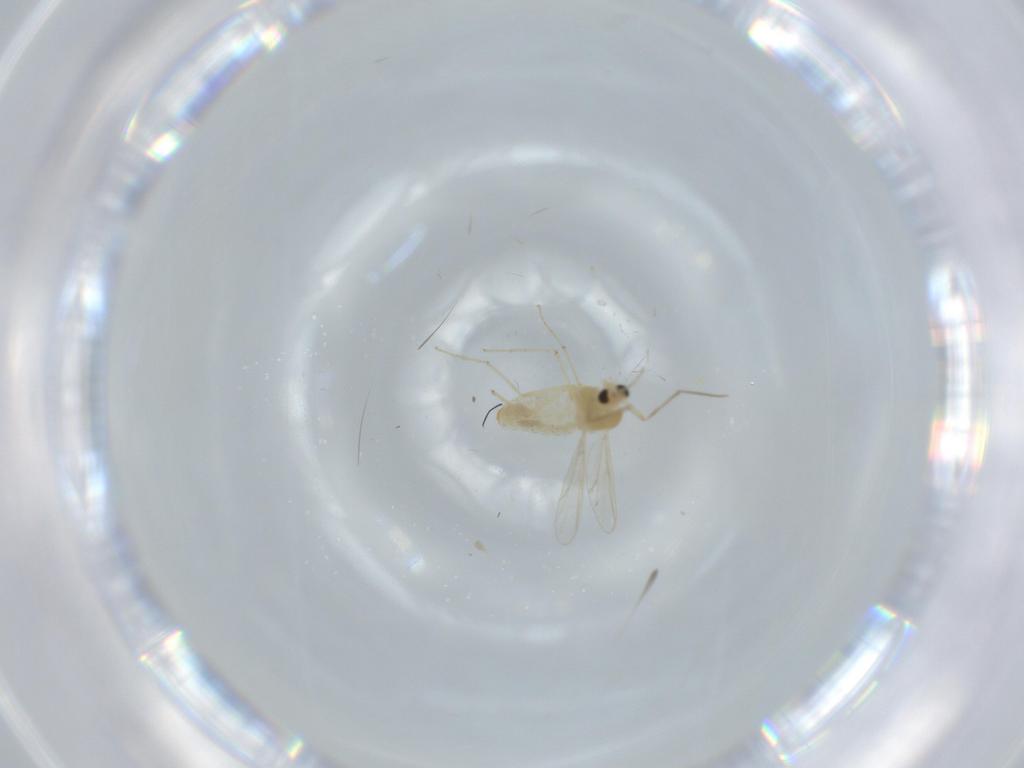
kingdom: Animalia
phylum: Arthropoda
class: Insecta
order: Diptera
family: Chironomidae
